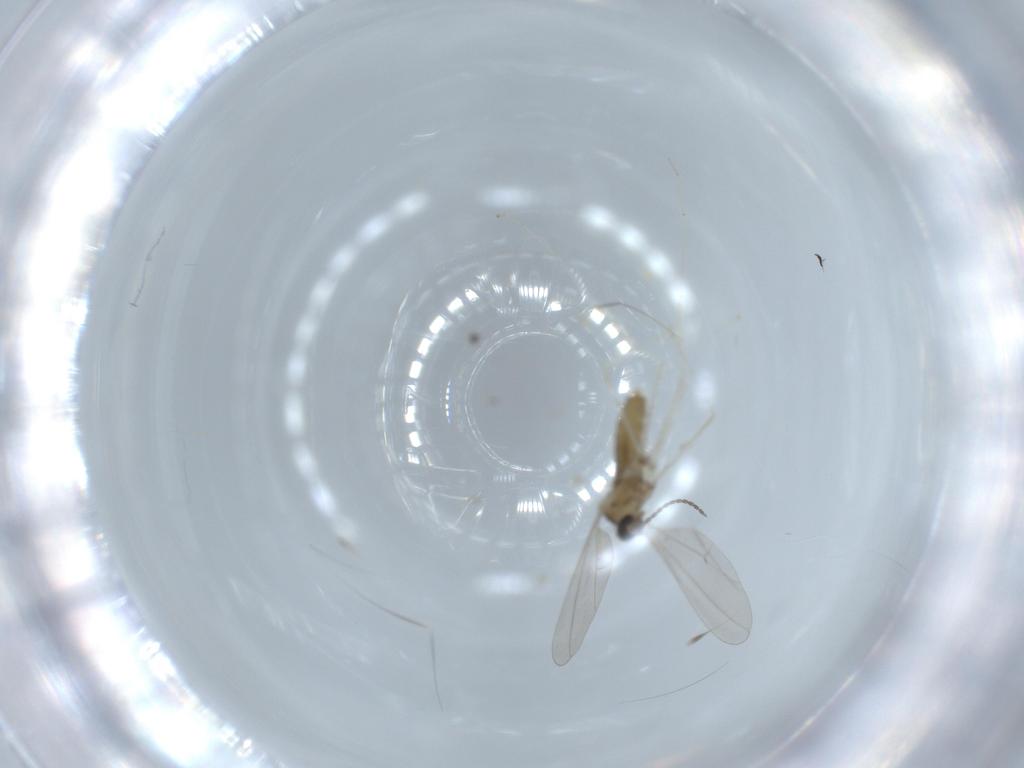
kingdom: Animalia
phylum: Arthropoda
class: Insecta
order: Diptera
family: Cecidomyiidae
